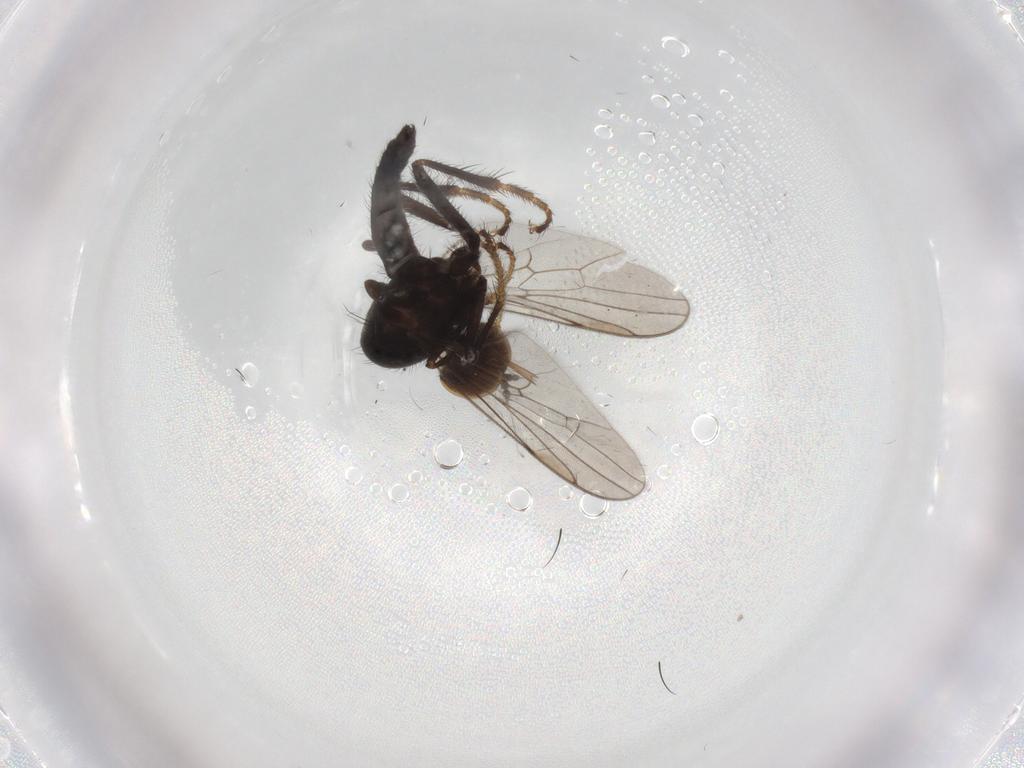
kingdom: Animalia
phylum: Arthropoda
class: Insecta
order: Diptera
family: Hybotidae
